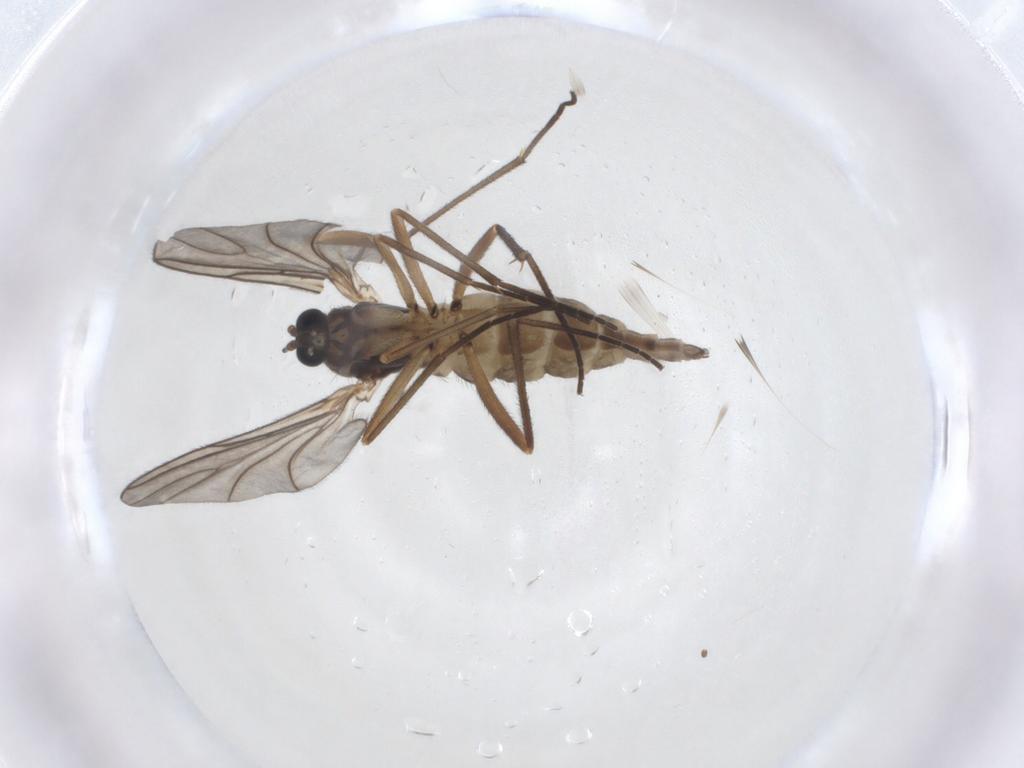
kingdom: Animalia
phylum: Arthropoda
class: Insecta
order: Diptera
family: Sciaridae
